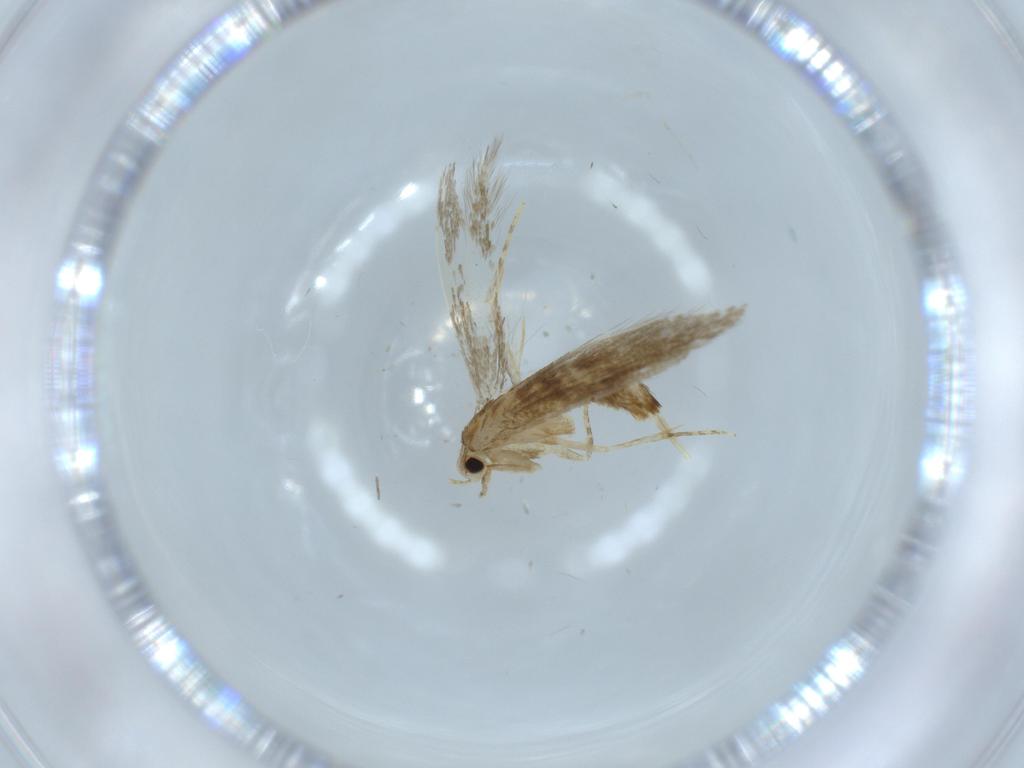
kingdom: Animalia
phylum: Arthropoda
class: Insecta
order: Lepidoptera
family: Tineidae
